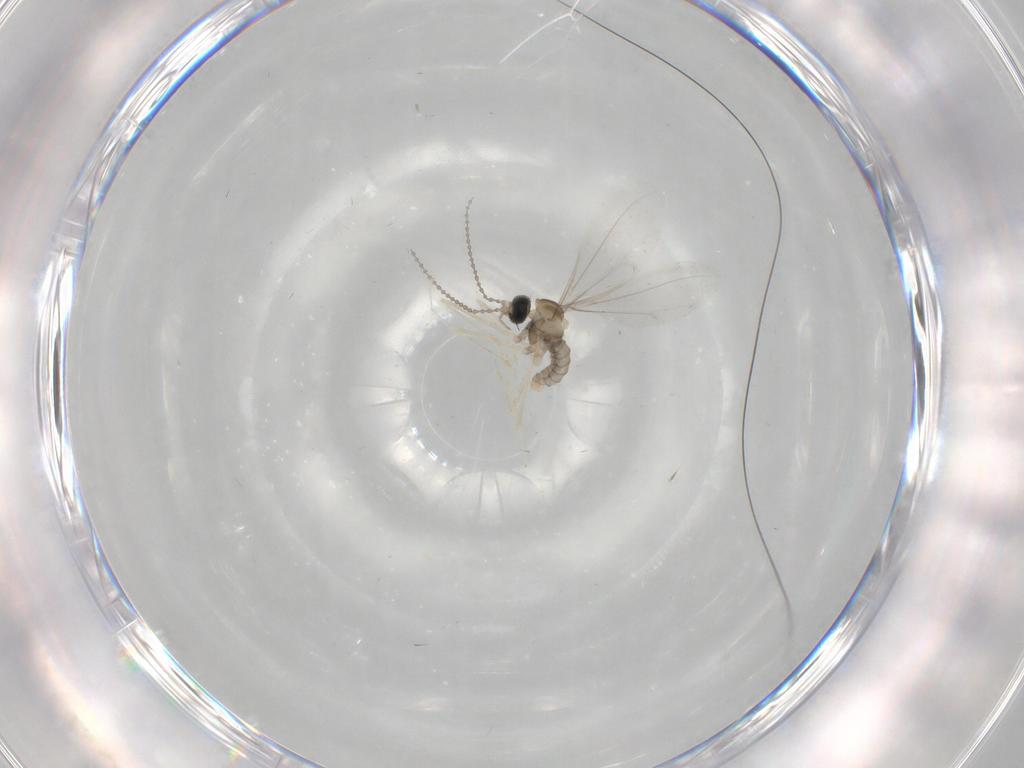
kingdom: Animalia
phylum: Arthropoda
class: Insecta
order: Diptera
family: Cecidomyiidae
